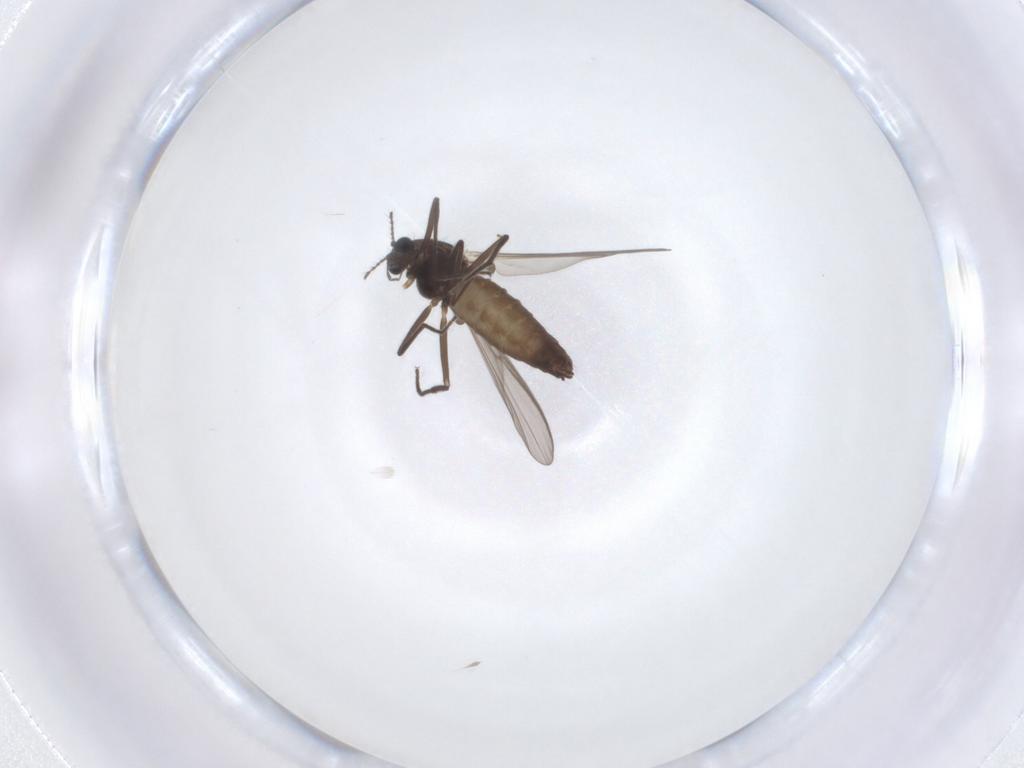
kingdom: Animalia
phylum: Arthropoda
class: Insecta
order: Diptera
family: Chironomidae
